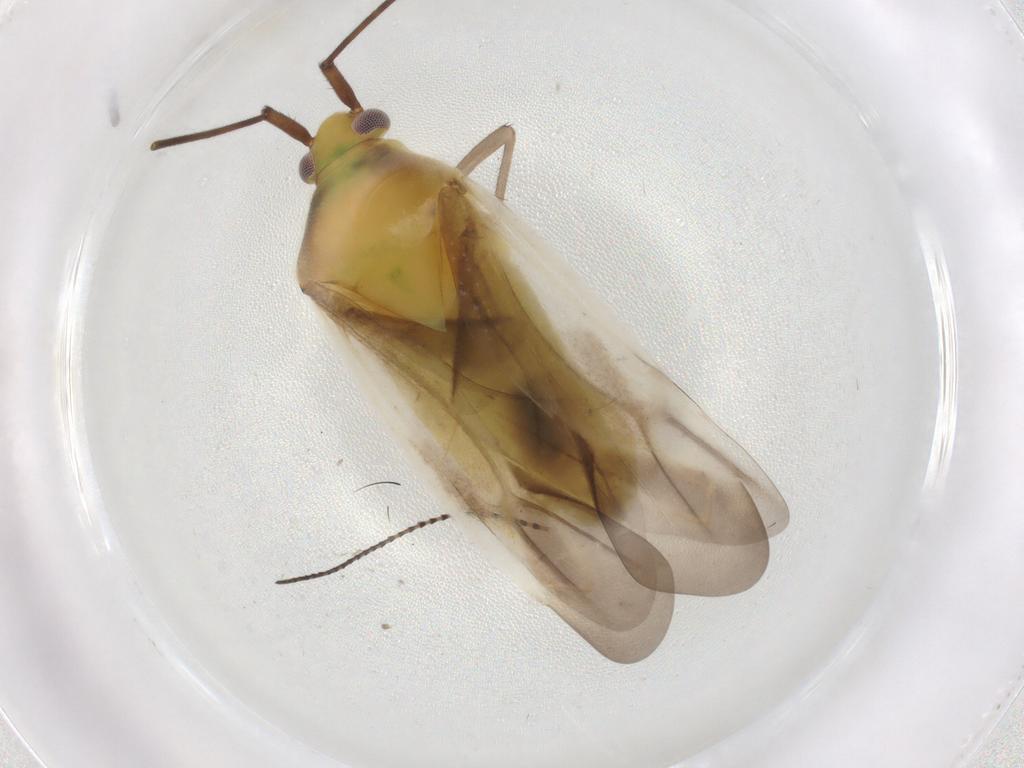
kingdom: Animalia
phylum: Arthropoda
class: Insecta
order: Hemiptera
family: Miridae
